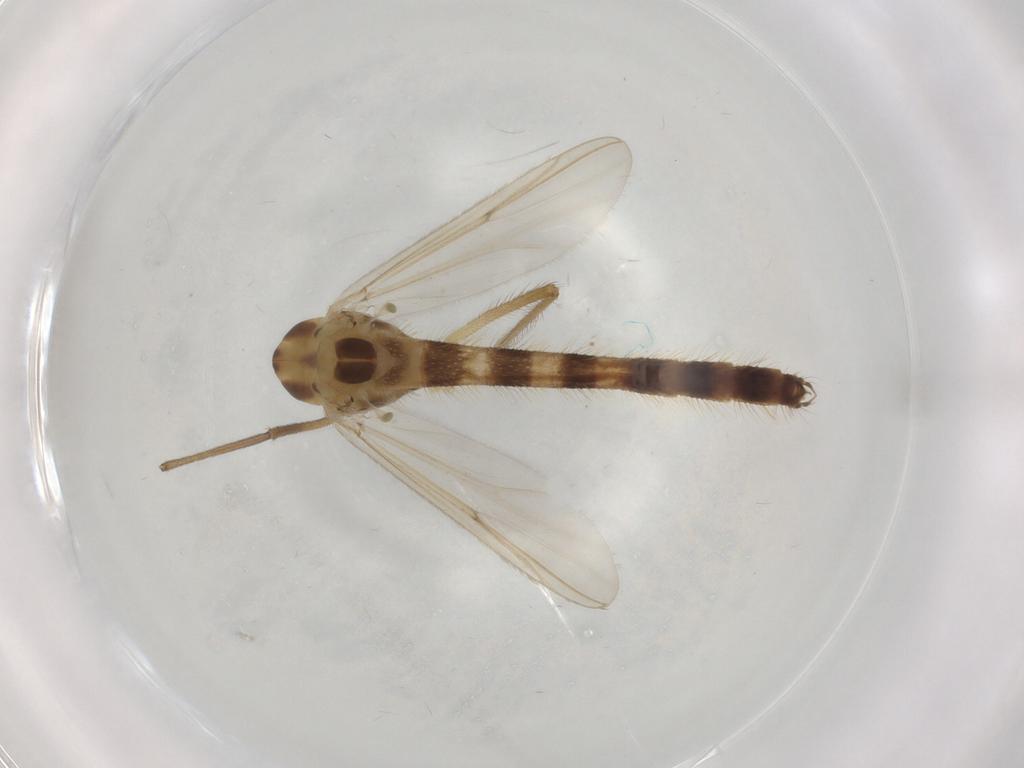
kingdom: Animalia
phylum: Arthropoda
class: Insecta
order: Diptera
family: Chironomidae
